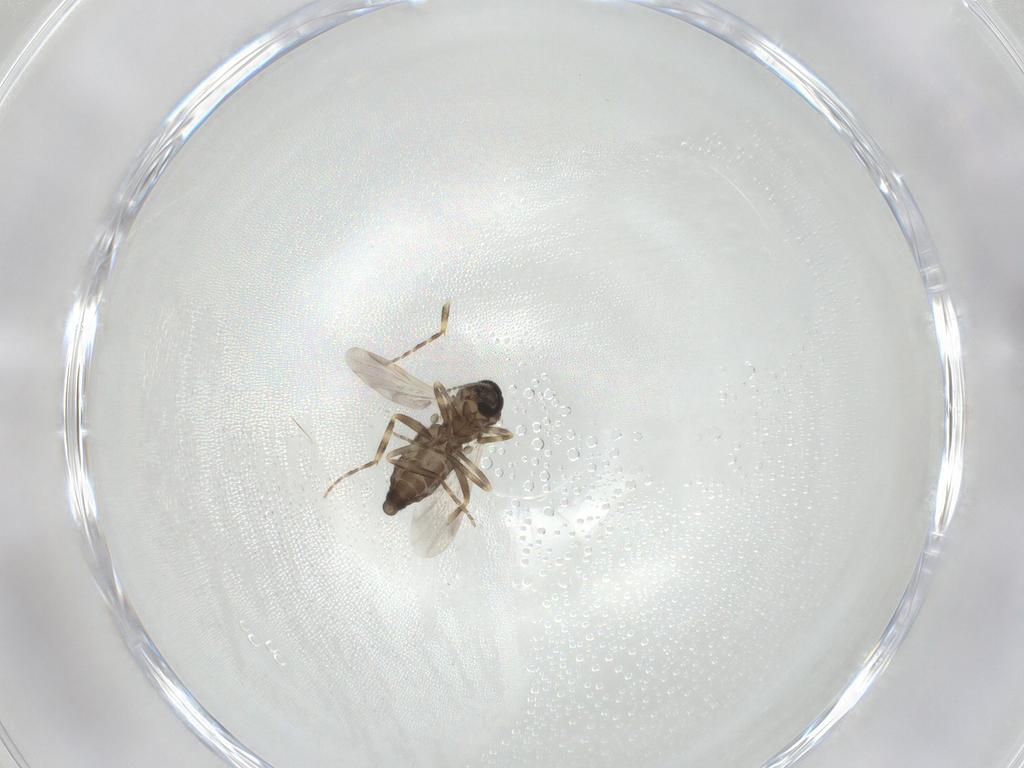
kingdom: Animalia
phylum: Arthropoda
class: Insecta
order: Diptera
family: Ceratopogonidae
